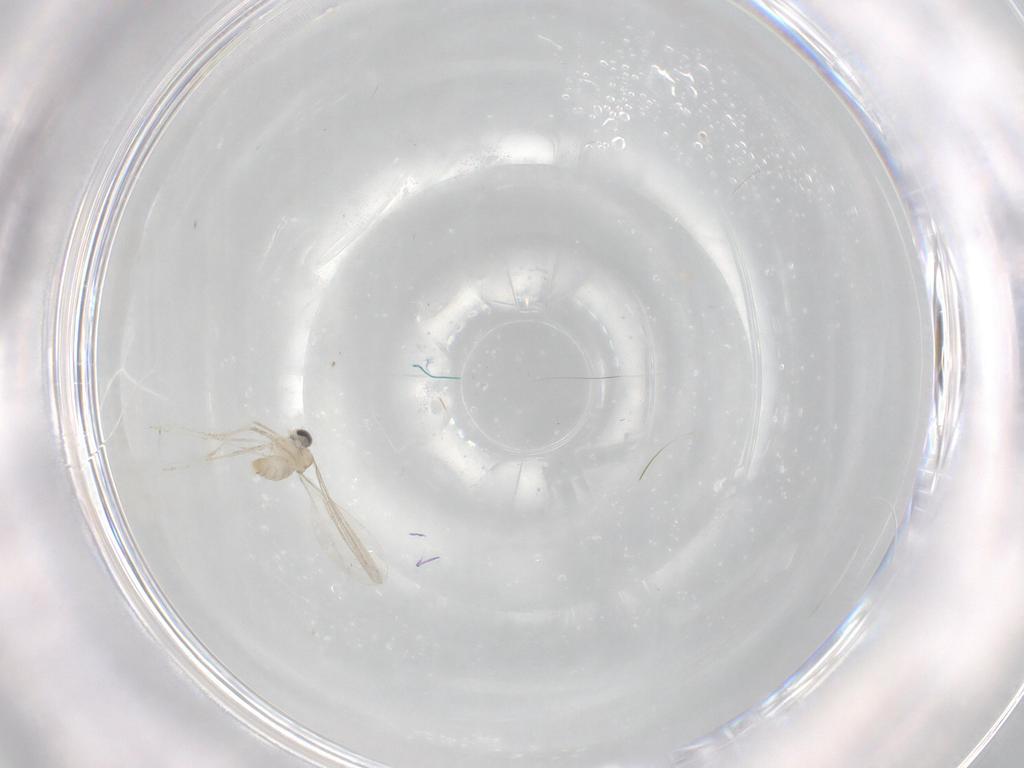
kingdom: Animalia
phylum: Arthropoda
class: Insecta
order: Diptera
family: Cecidomyiidae
